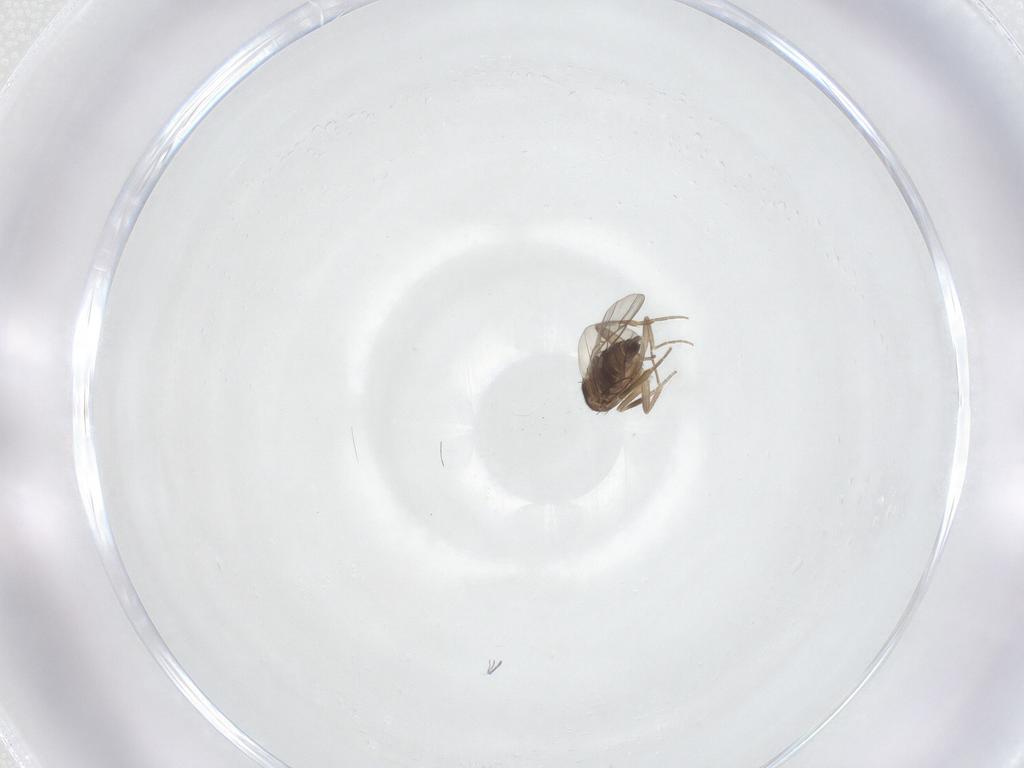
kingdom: Animalia
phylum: Arthropoda
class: Insecta
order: Diptera
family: Phoridae
